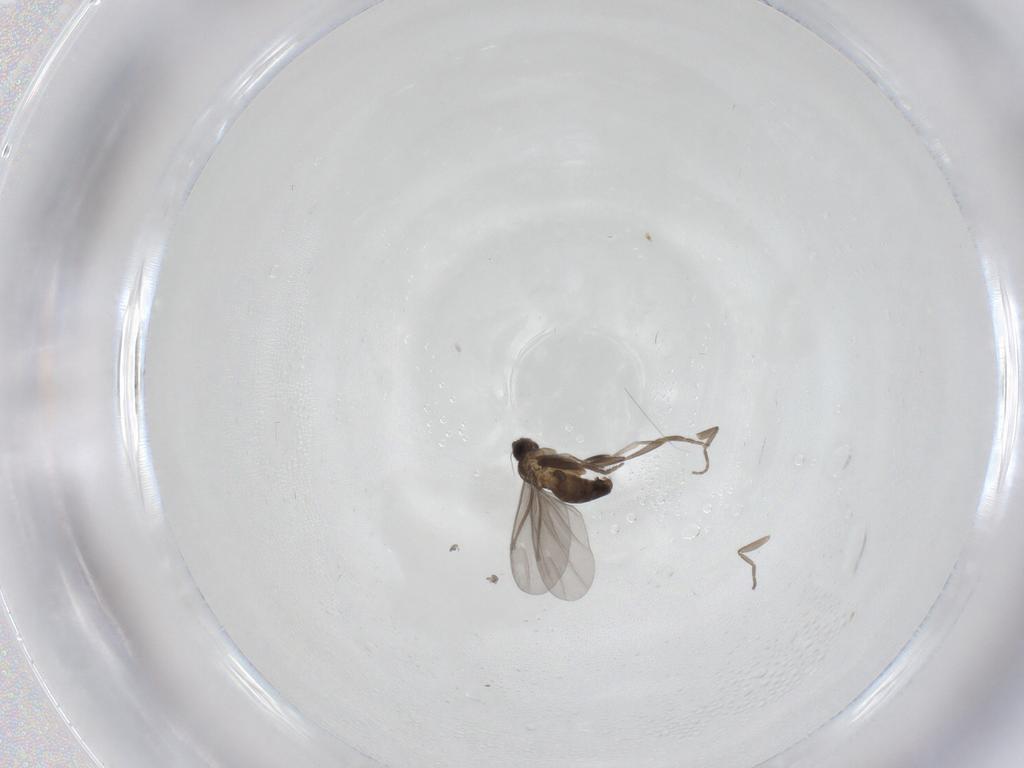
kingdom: Animalia
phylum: Arthropoda
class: Insecta
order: Diptera
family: Phoridae
